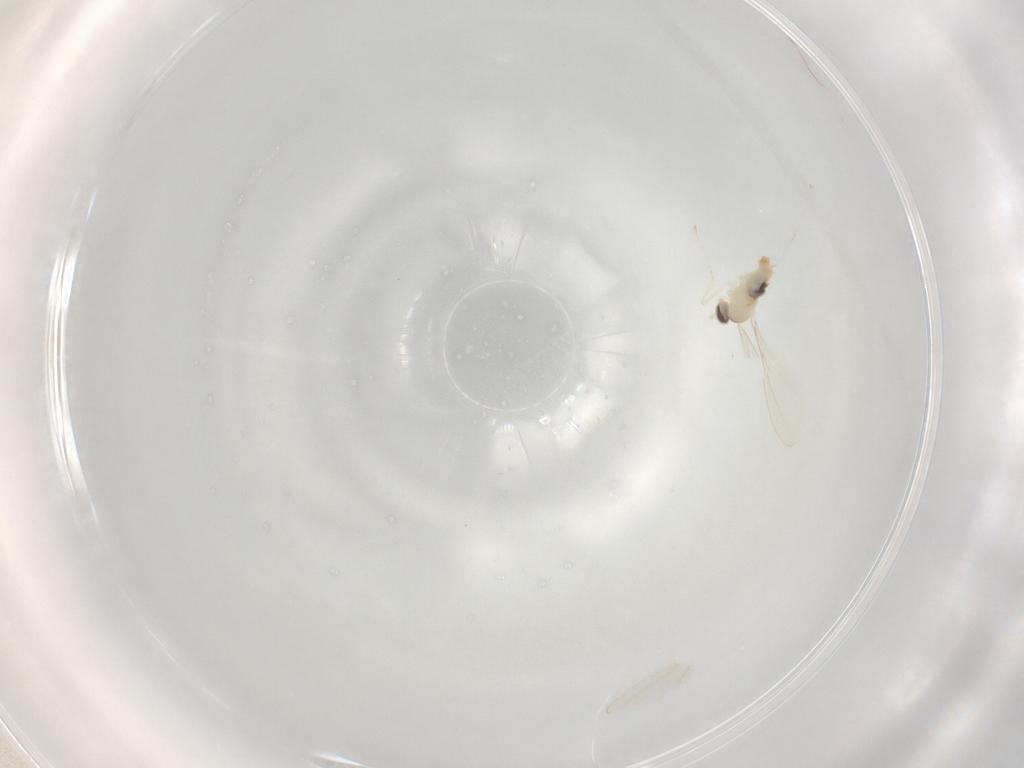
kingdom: Animalia
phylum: Arthropoda
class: Insecta
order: Diptera
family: Cecidomyiidae
